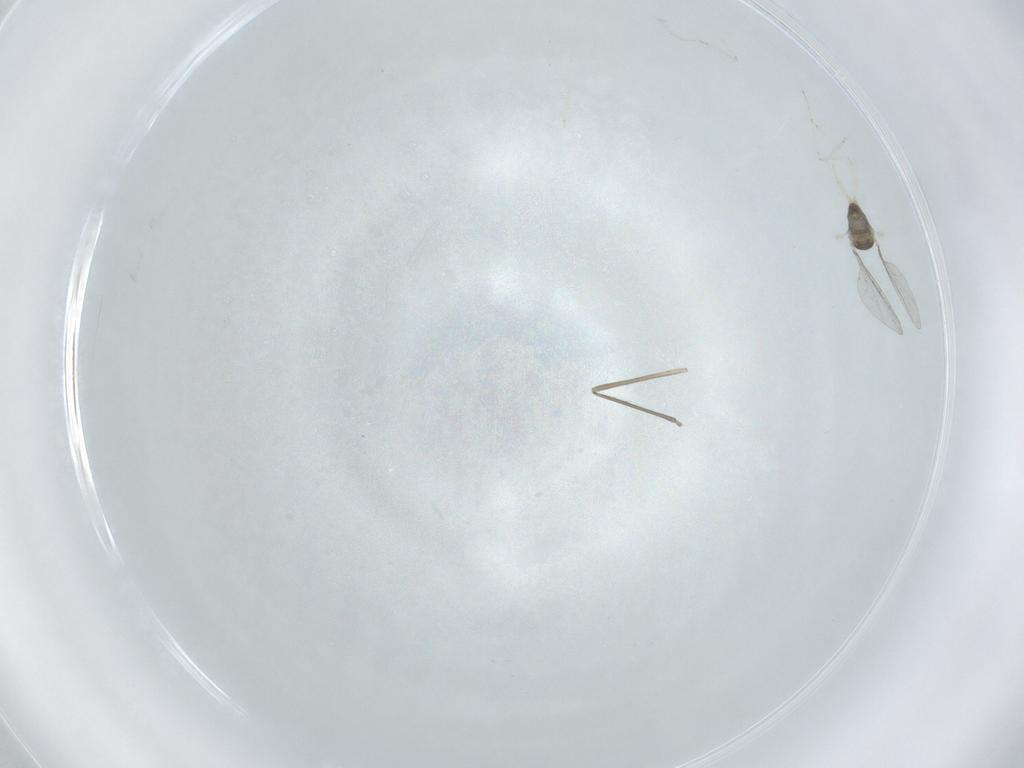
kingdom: Animalia
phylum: Arthropoda
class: Insecta
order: Diptera
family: Cecidomyiidae
